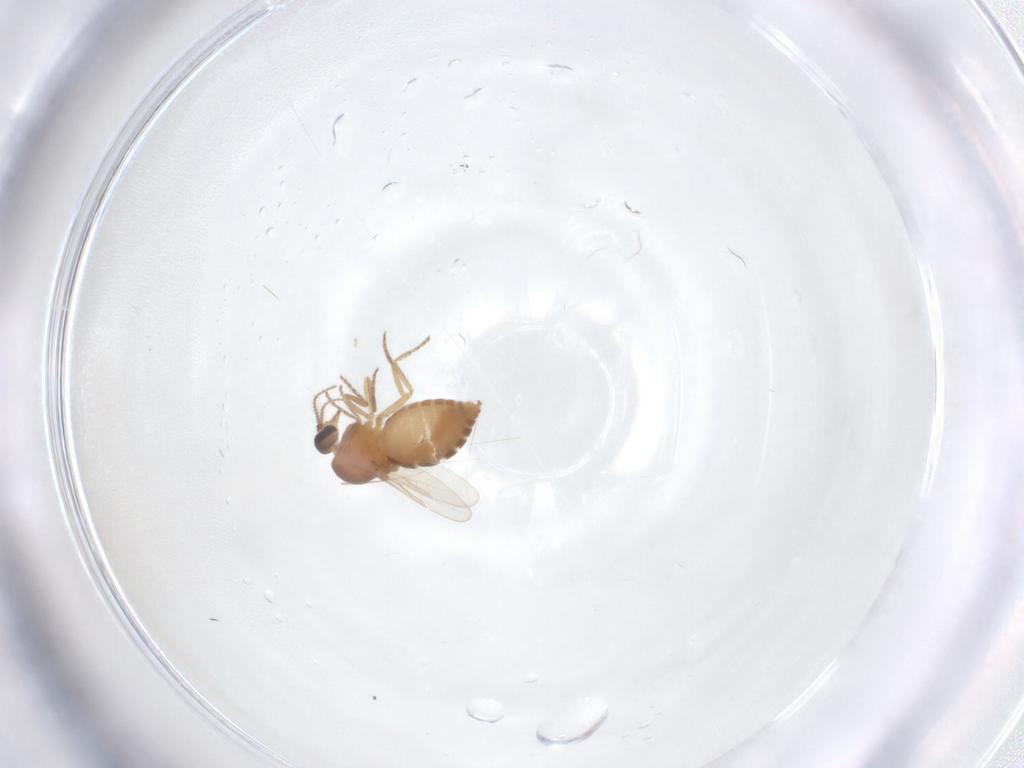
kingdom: Animalia
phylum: Arthropoda
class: Insecta
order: Diptera
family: Ceratopogonidae
